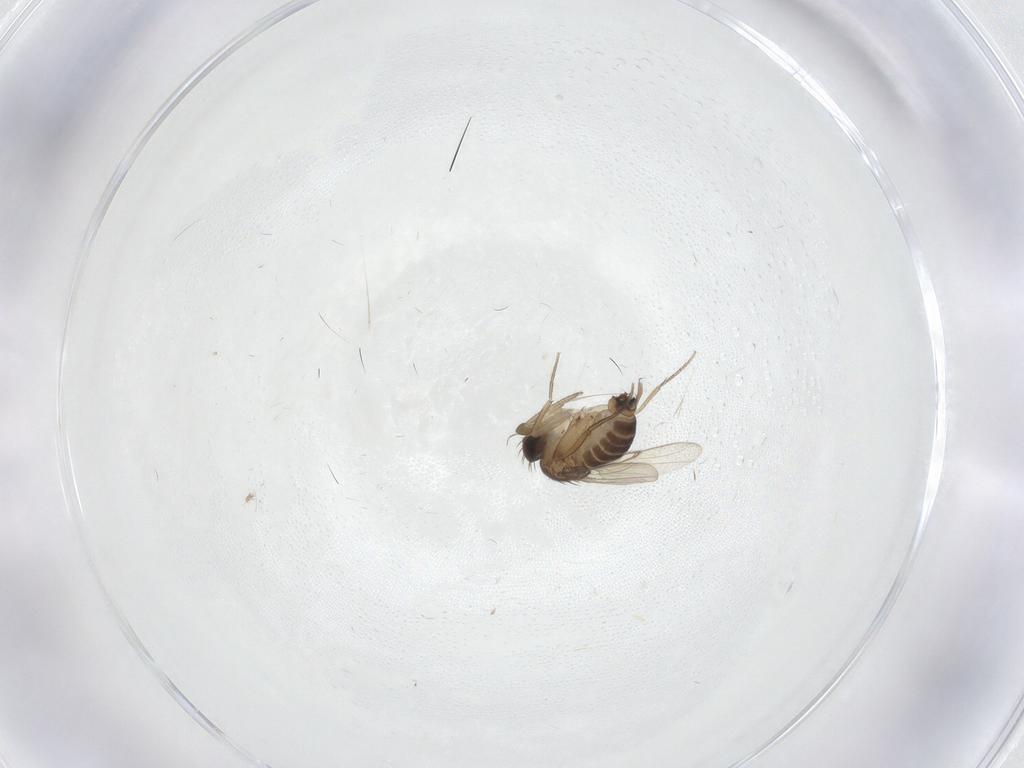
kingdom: Animalia
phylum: Arthropoda
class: Insecta
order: Diptera
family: Chironomidae
